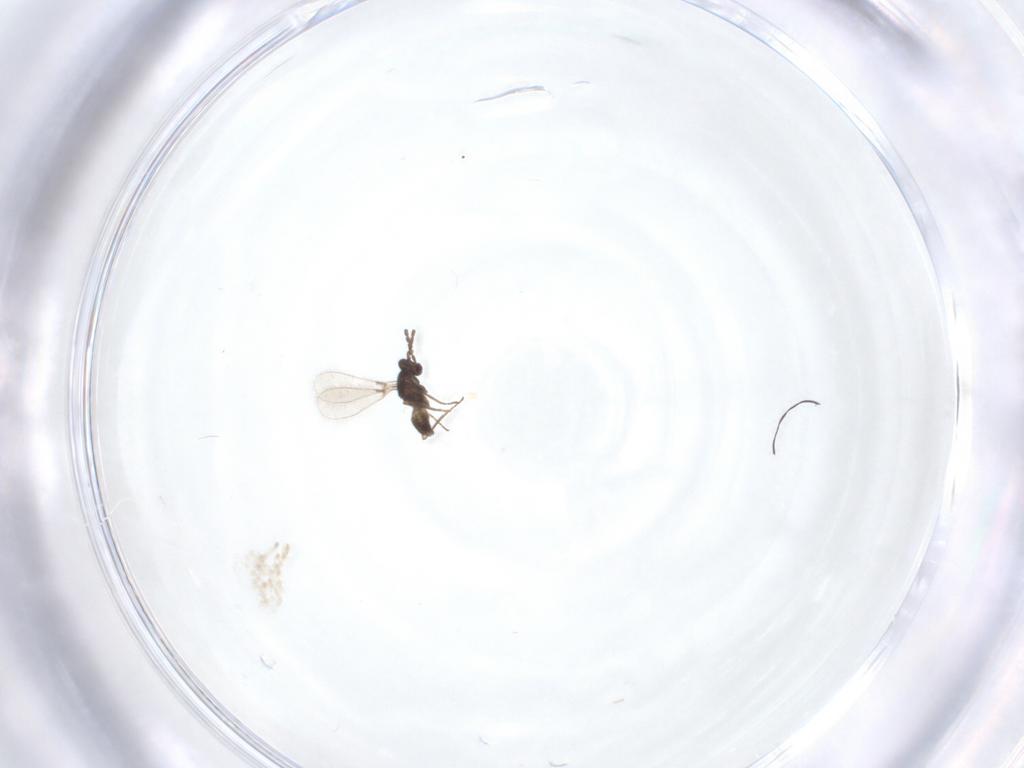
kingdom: Animalia
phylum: Arthropoda
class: Insecta
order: Hymenoptera
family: Mymaridae
